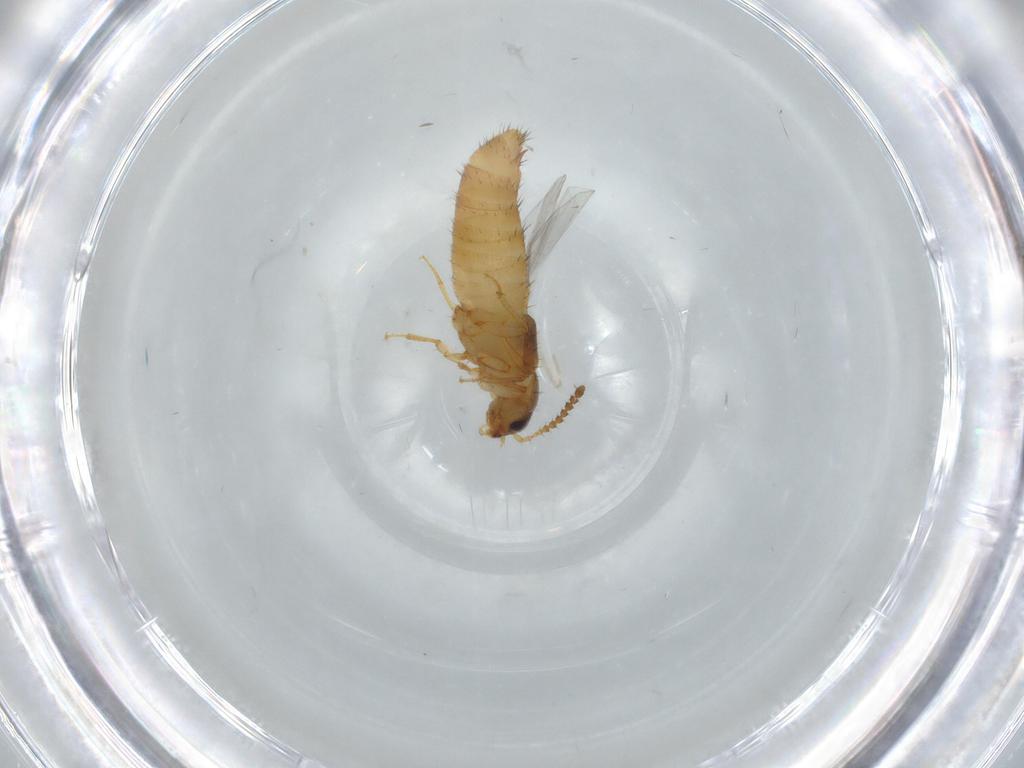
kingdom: Animalia
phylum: Arthropoda
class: Insecta
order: Coleoptera
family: Staphylinidae
